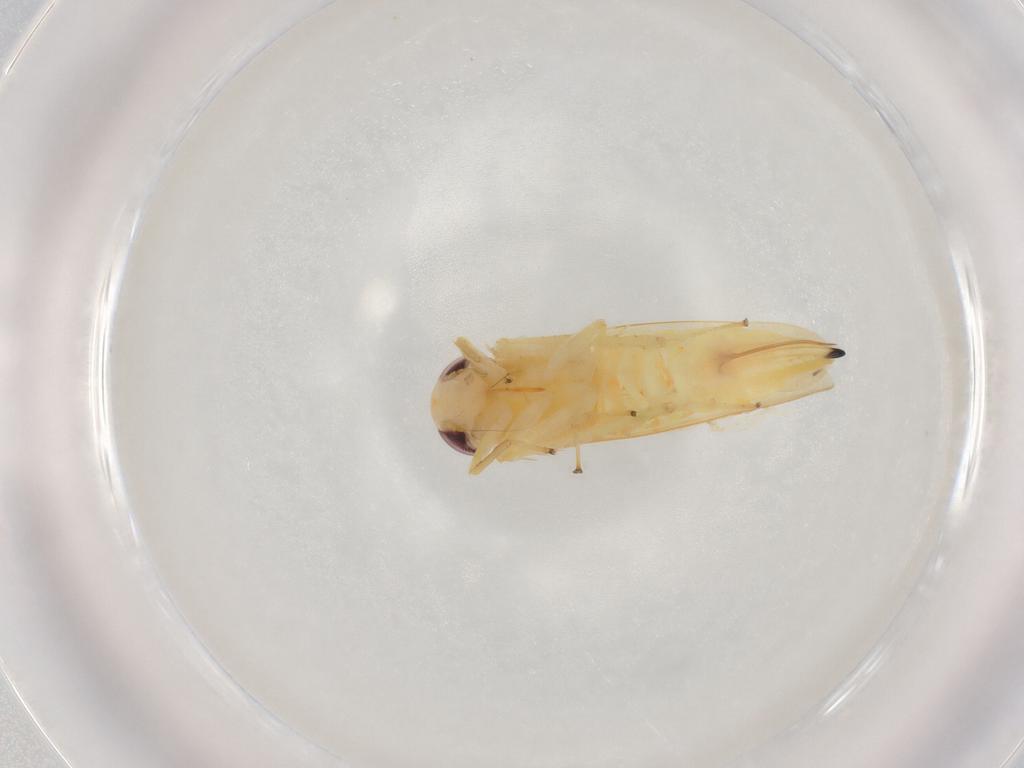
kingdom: Animalia
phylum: Arthropoda
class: Insecta
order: Hemiptera
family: Cicadellidae
